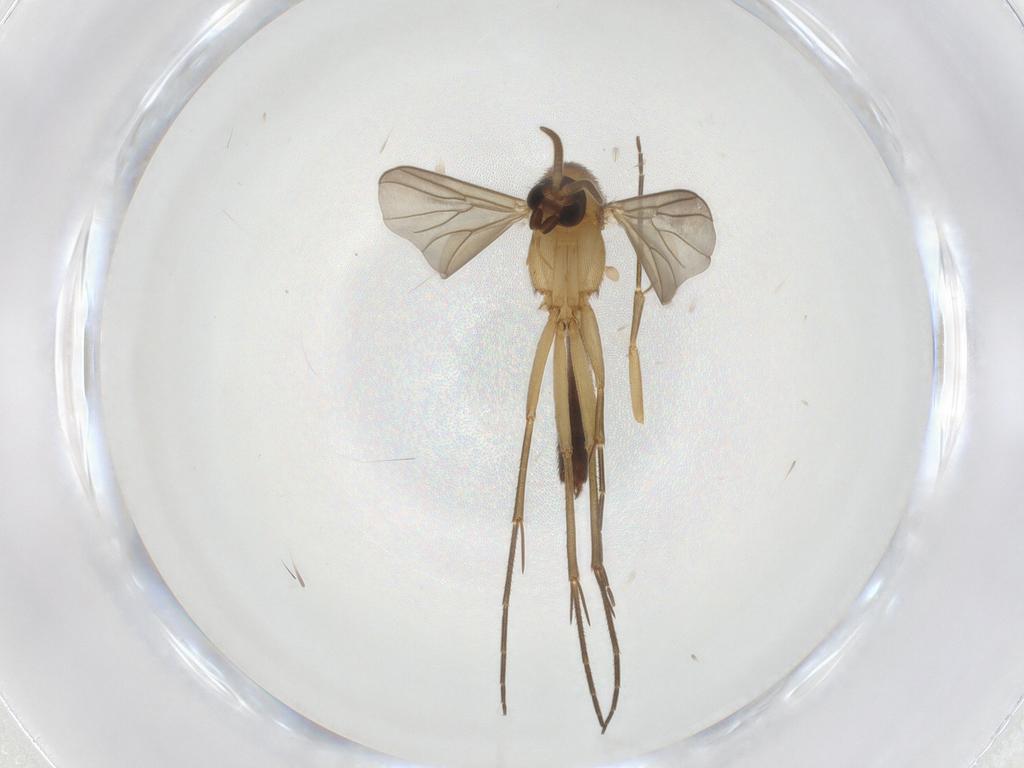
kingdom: Animalia
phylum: Arthropoda
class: Insecta
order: Diptera
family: Mycetophilidae
